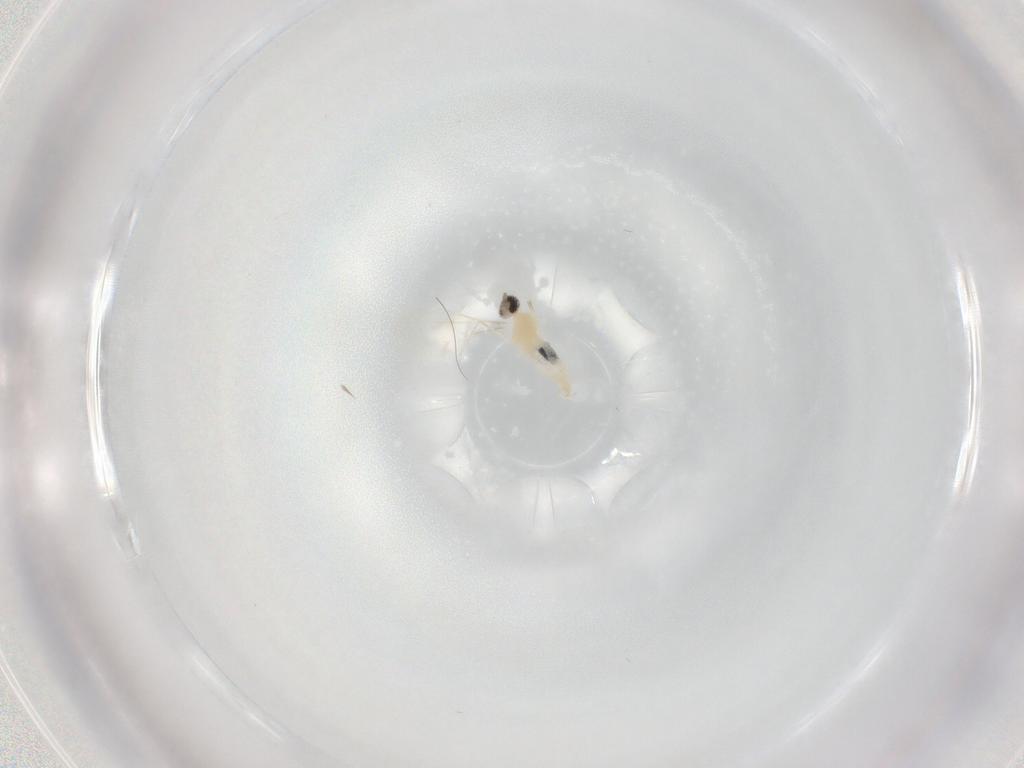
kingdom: Animalia
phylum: Arthropoda
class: Insecta
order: Diptera
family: Cecidomyiidae
